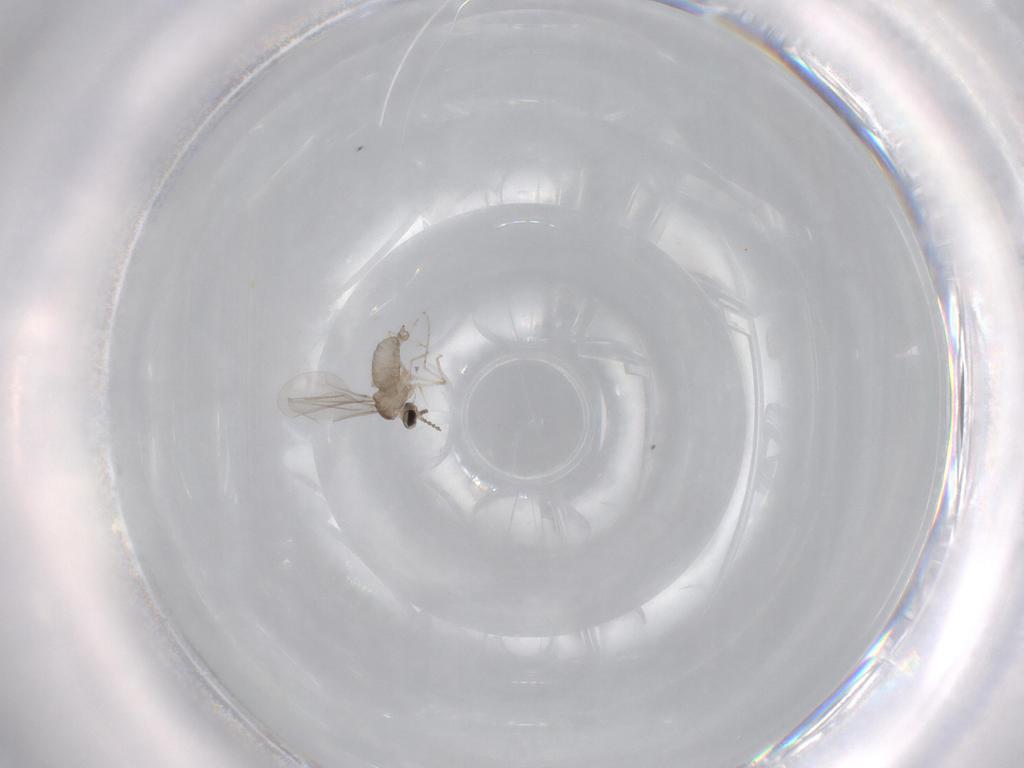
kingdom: Animalia
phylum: Arthropoda
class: Insecta
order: Diptera
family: Cecidomyiidae
